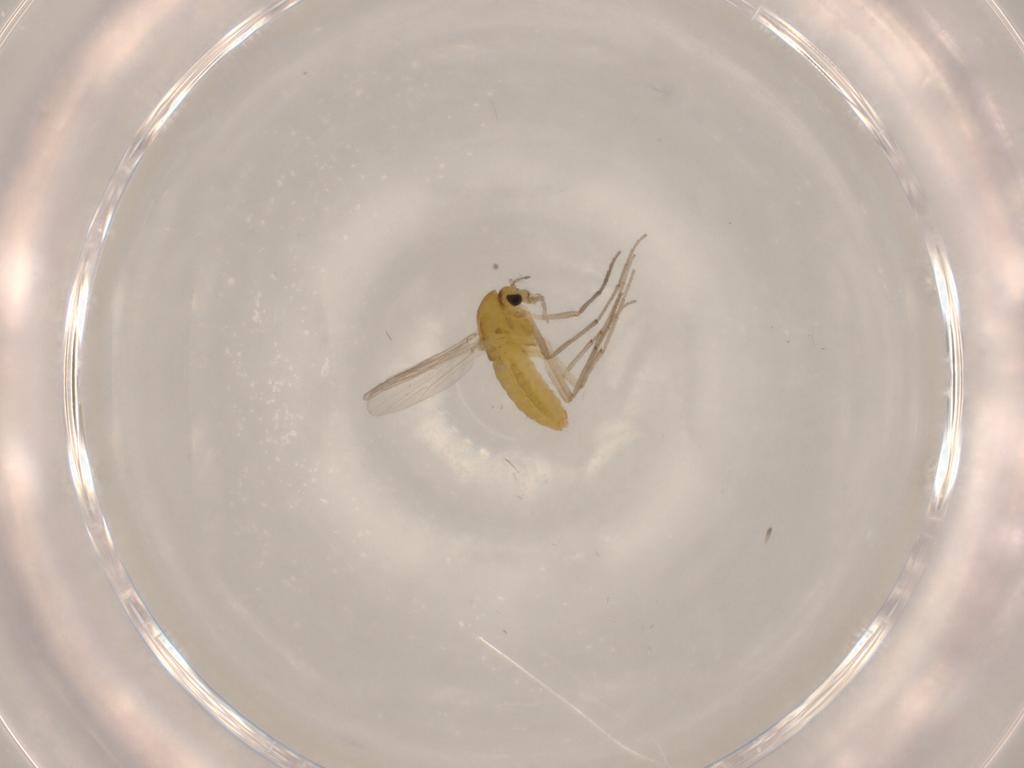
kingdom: Animalia
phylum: Arthropoda
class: Insecta
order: Diptera
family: Chironomidae
